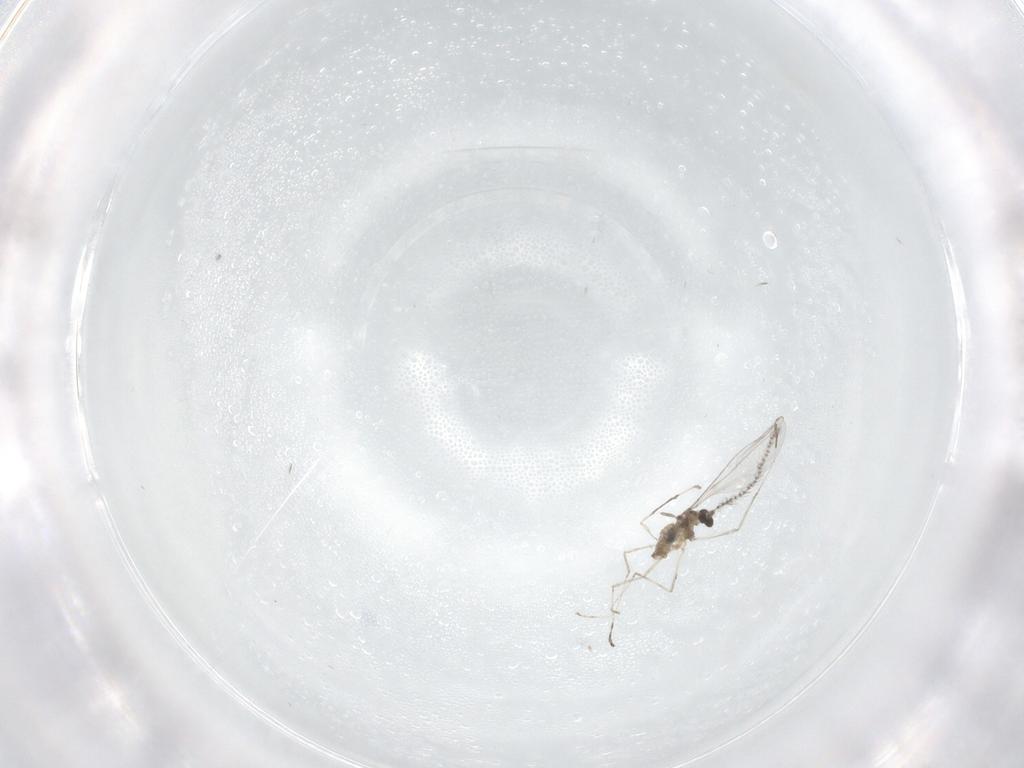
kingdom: Animalia
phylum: Arthropoda
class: Insecta
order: Diptera
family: Cecidomyiidae
